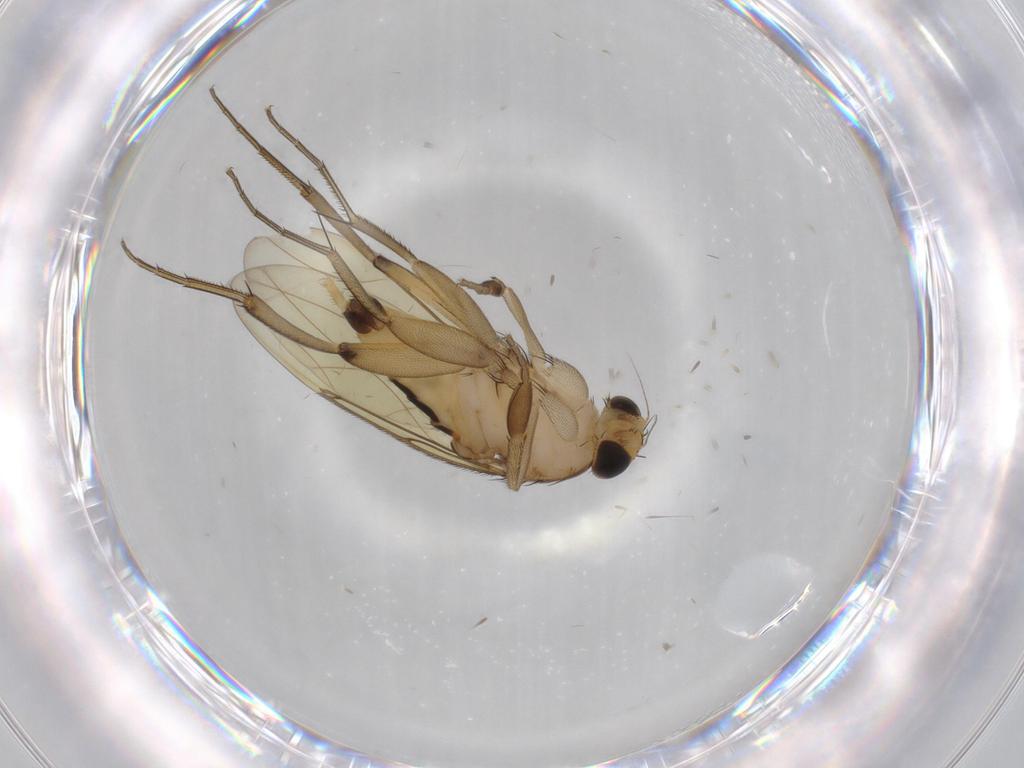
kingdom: Animalia
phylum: Arthropoda
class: Insecta
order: Diptera
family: Phoridae
